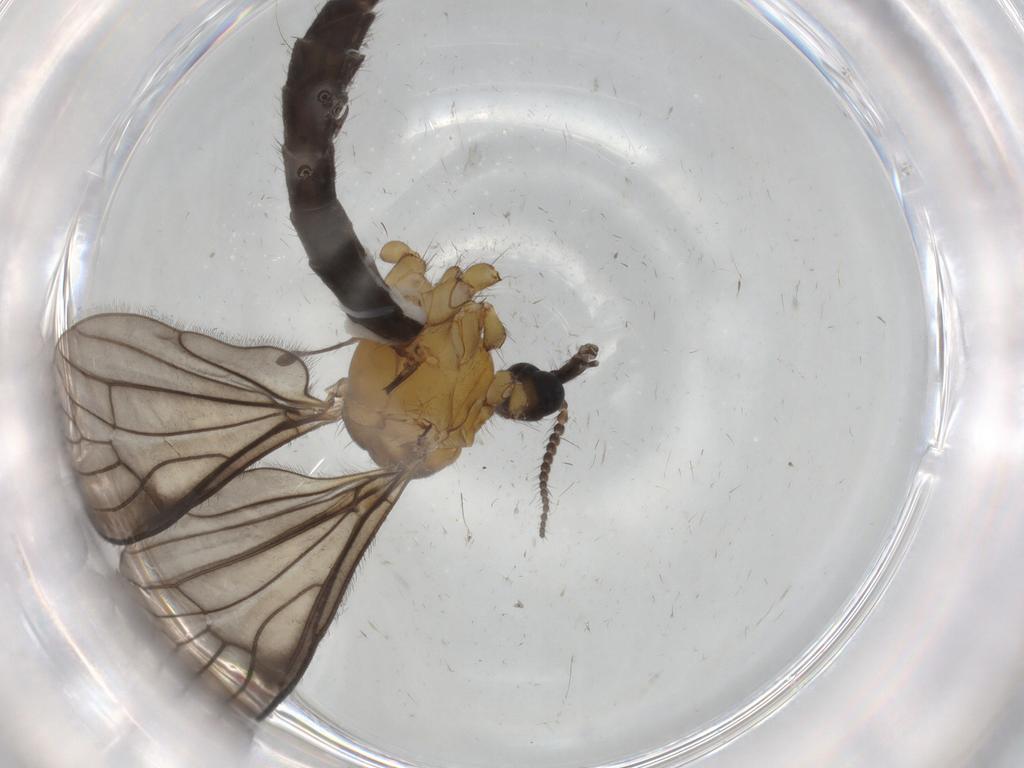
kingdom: Animalia
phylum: Arthropoda
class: Insecta
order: Diptera
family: Limoniidae
